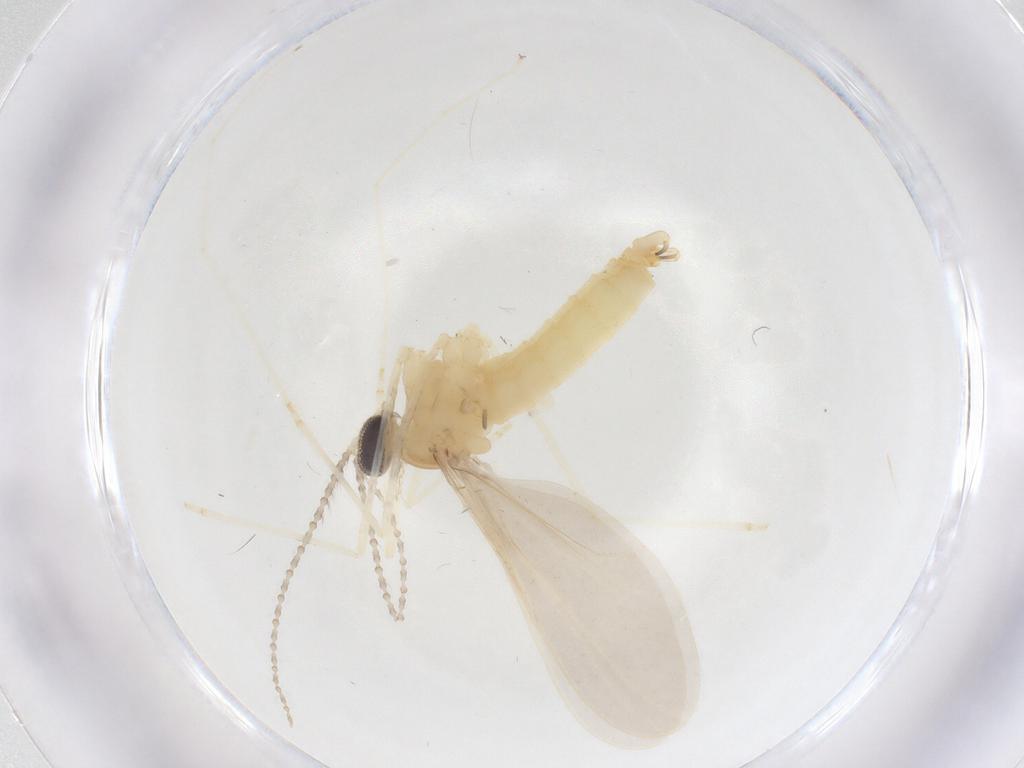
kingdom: Animalia
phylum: Arthropoda
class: Insecta
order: Diptera
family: Cecidomyiidae
